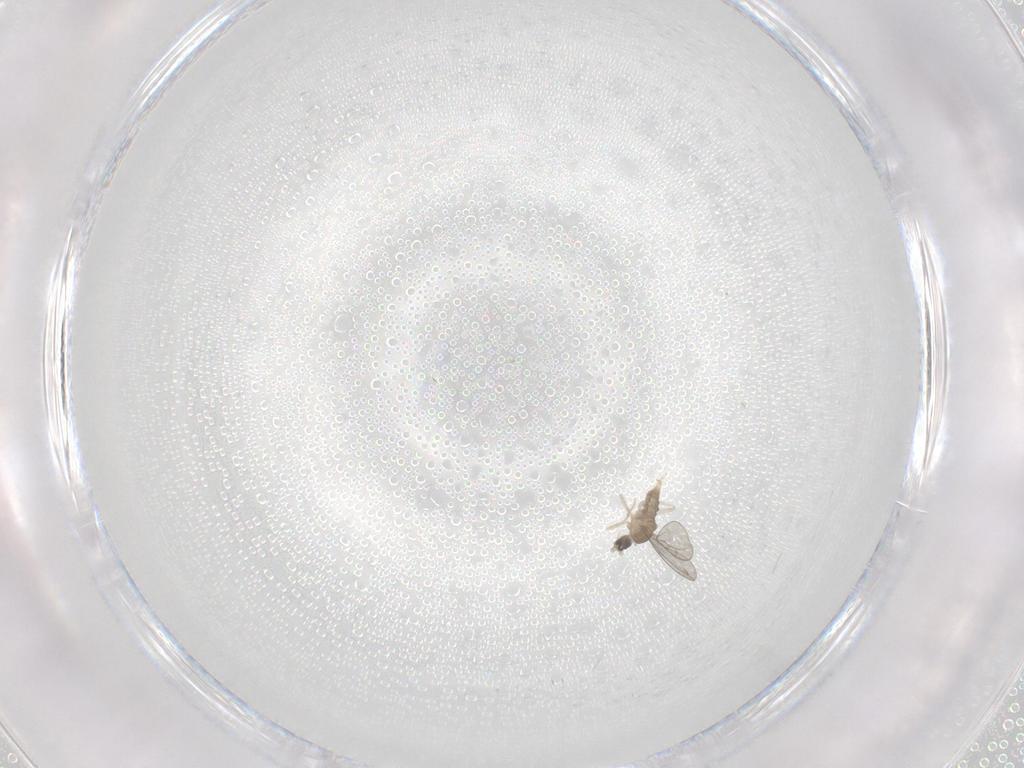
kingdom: Animalia
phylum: Arthropoda
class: Insecta
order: Diptera
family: Cecidomyiidae
